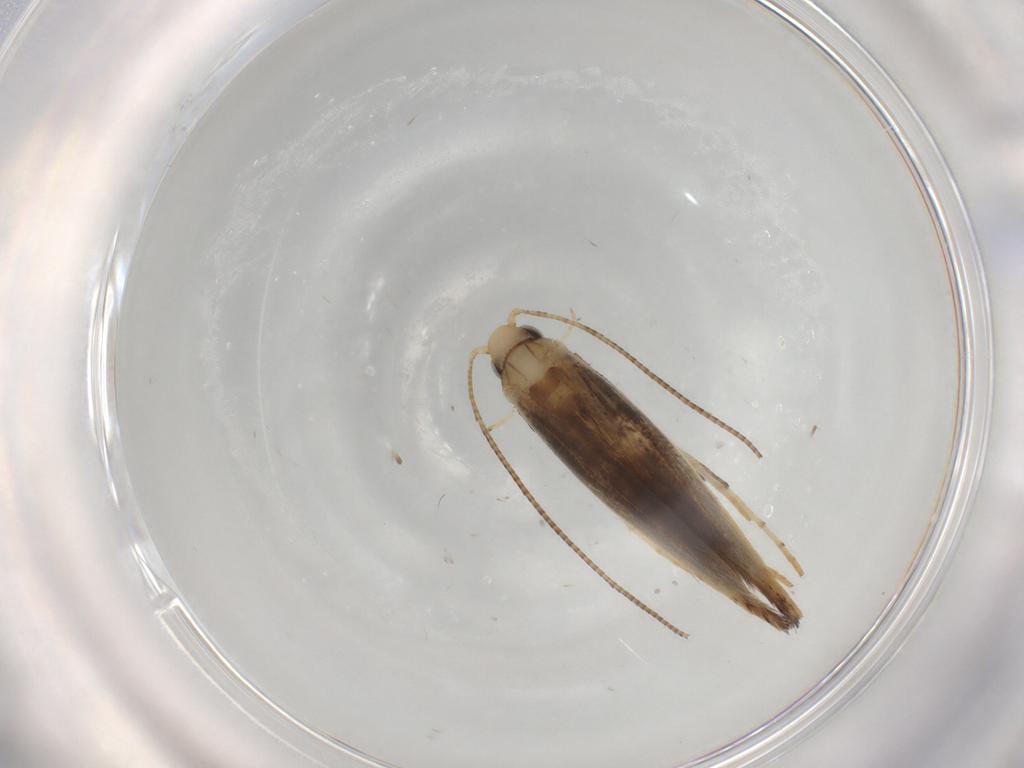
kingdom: Animalia
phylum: Arthropoda
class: Insecta
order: Lepidoptera
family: Gracillariidae
